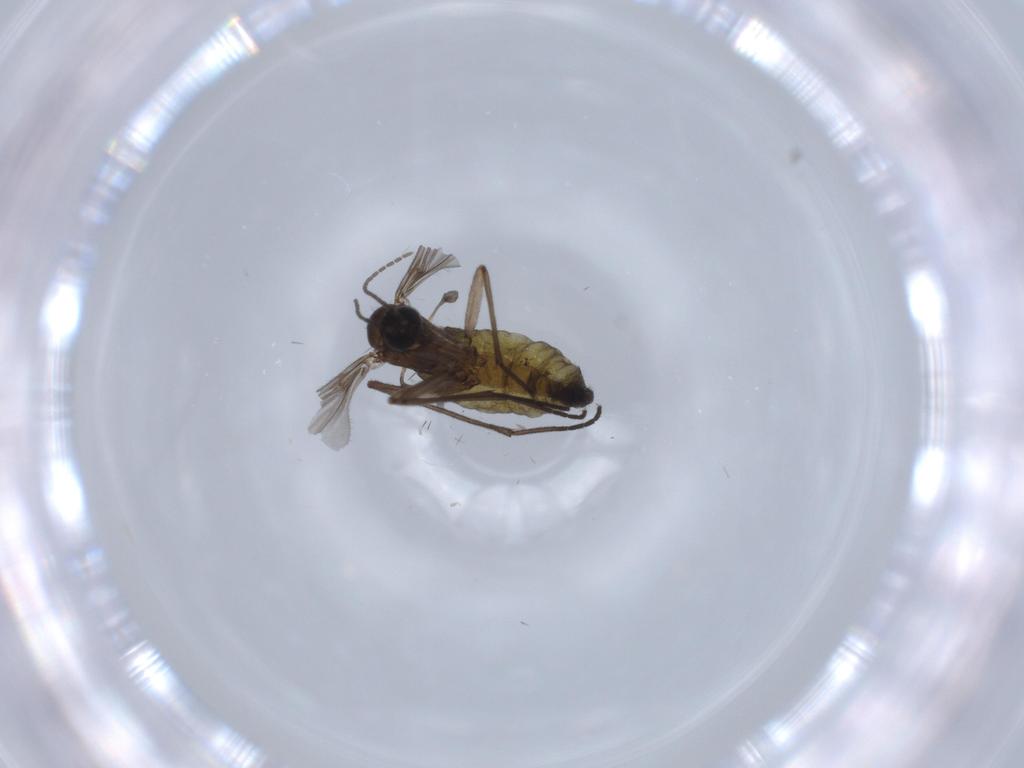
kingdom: Animalia
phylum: Arthropoda
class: Insecta
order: Diptera
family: Sciaridae
